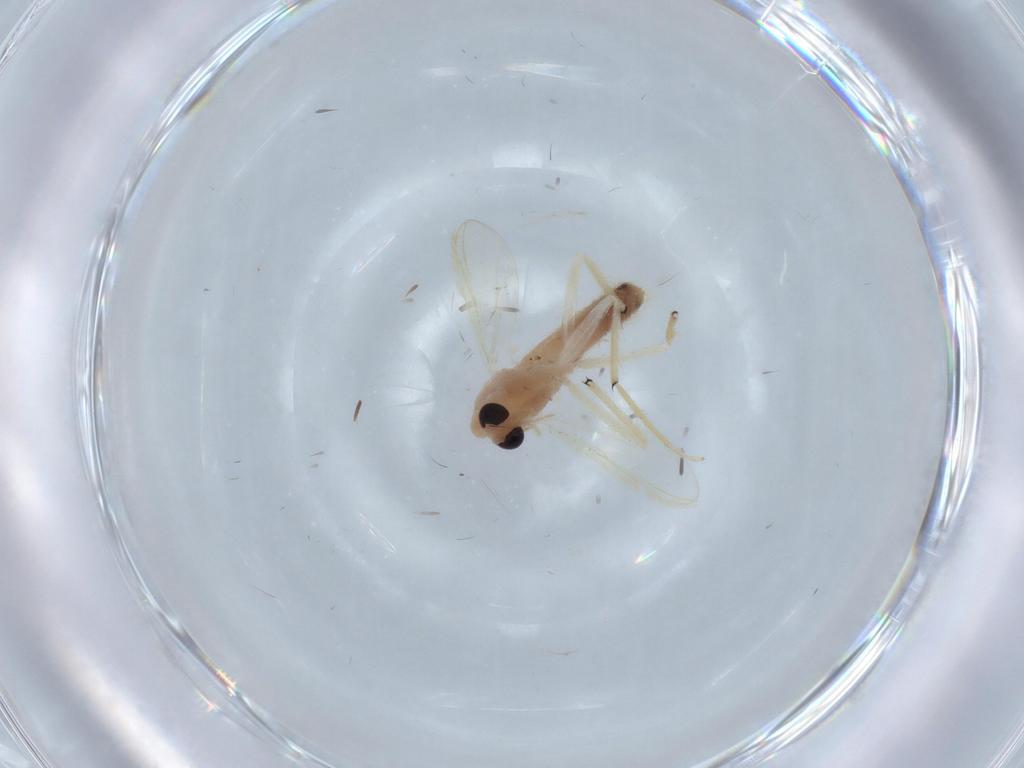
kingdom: Animalia
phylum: Arthropoda
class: Insecta
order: Diptera
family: Chironomidae
